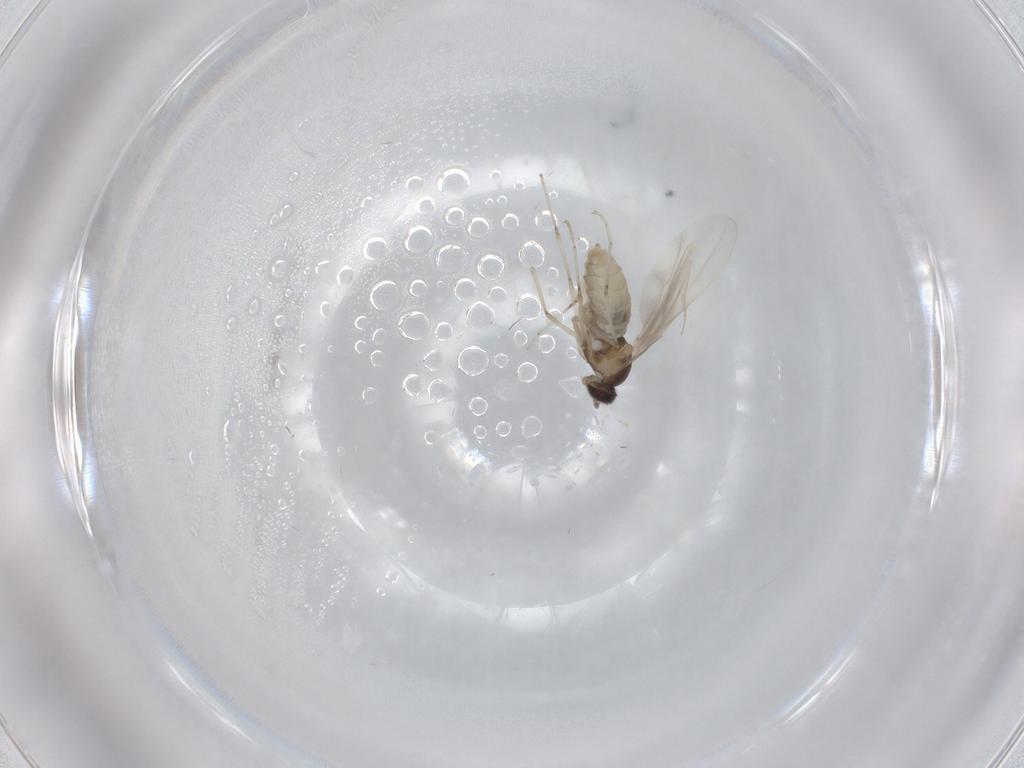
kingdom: Animalia
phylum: Arthropoda
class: Insecta
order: Diptera
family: Cecidomyiidae
